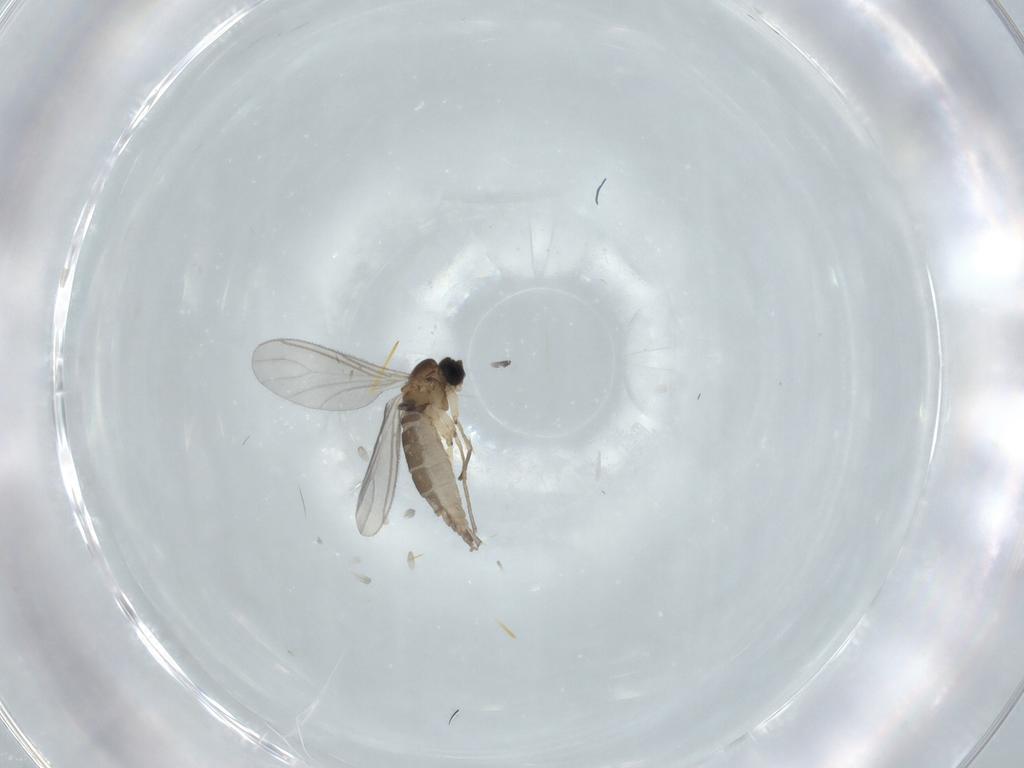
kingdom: Animalia
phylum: Arthropoda
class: Insecta
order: Diptera
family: Sciaridae
